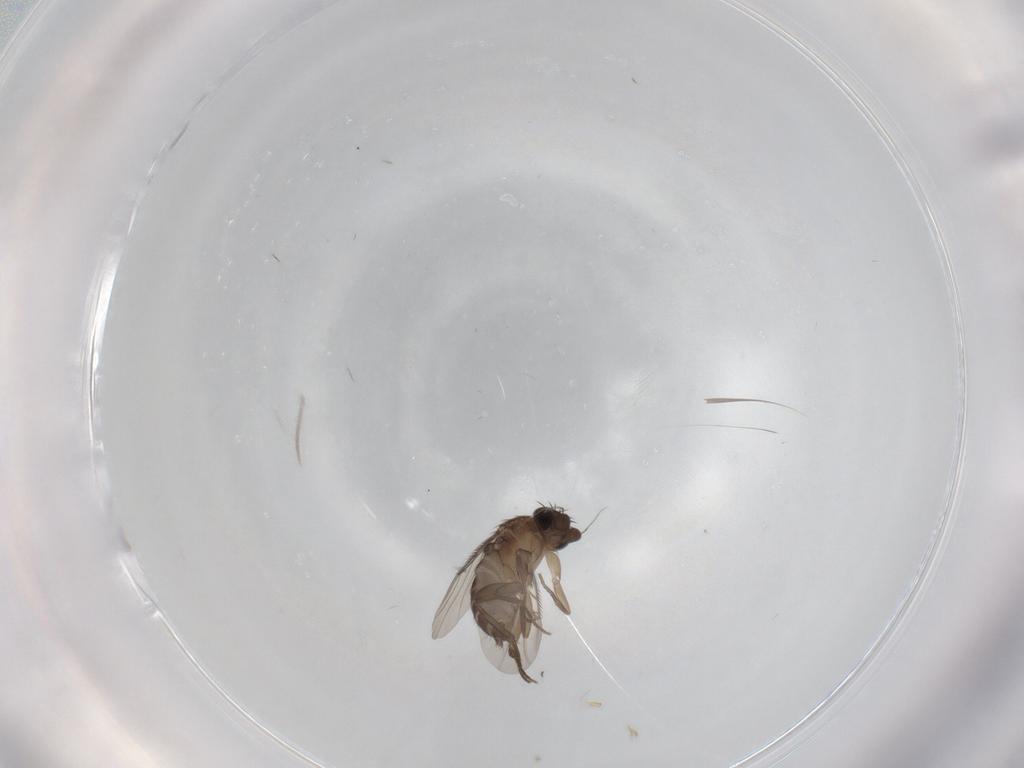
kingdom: Animalia
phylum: Arthropoda
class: Insecta
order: Diptera
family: Phoridae
